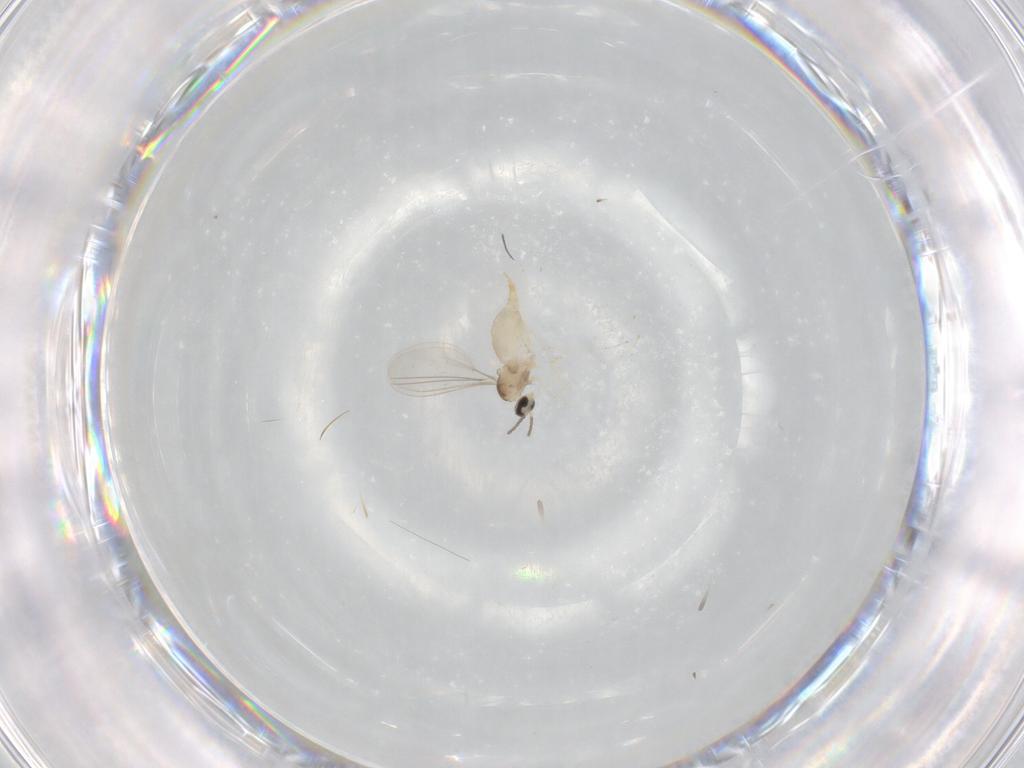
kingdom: Animalia
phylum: Arthropoda
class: Insecta
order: Diptera
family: Cecidomyiidae
